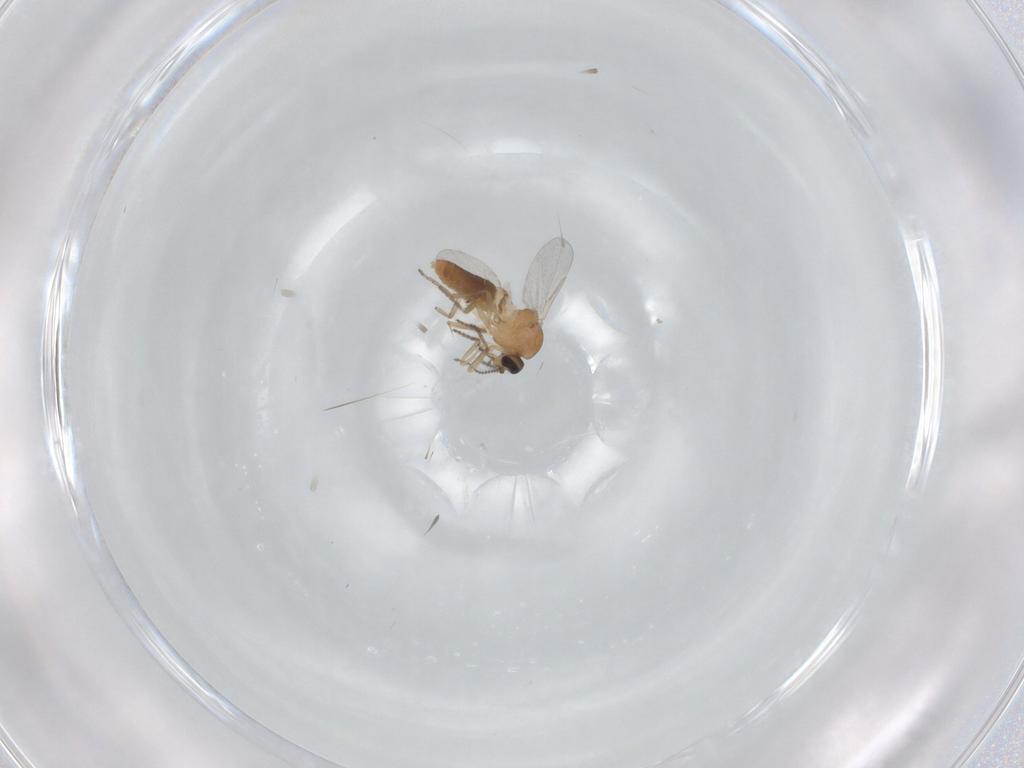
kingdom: Animalia
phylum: Arthropoda
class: Insecta
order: Diptera
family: Ceratopogonidae
